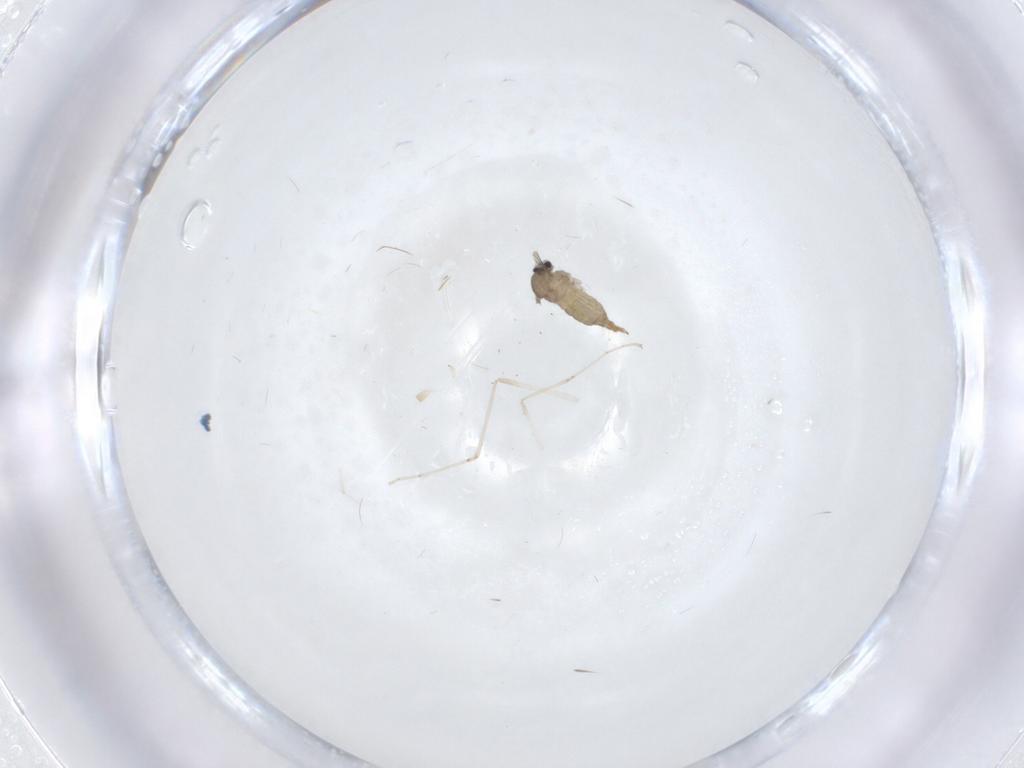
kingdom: Animalia
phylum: Arthropoda
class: Insecta
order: Diptera
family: Cecidomyiidae
